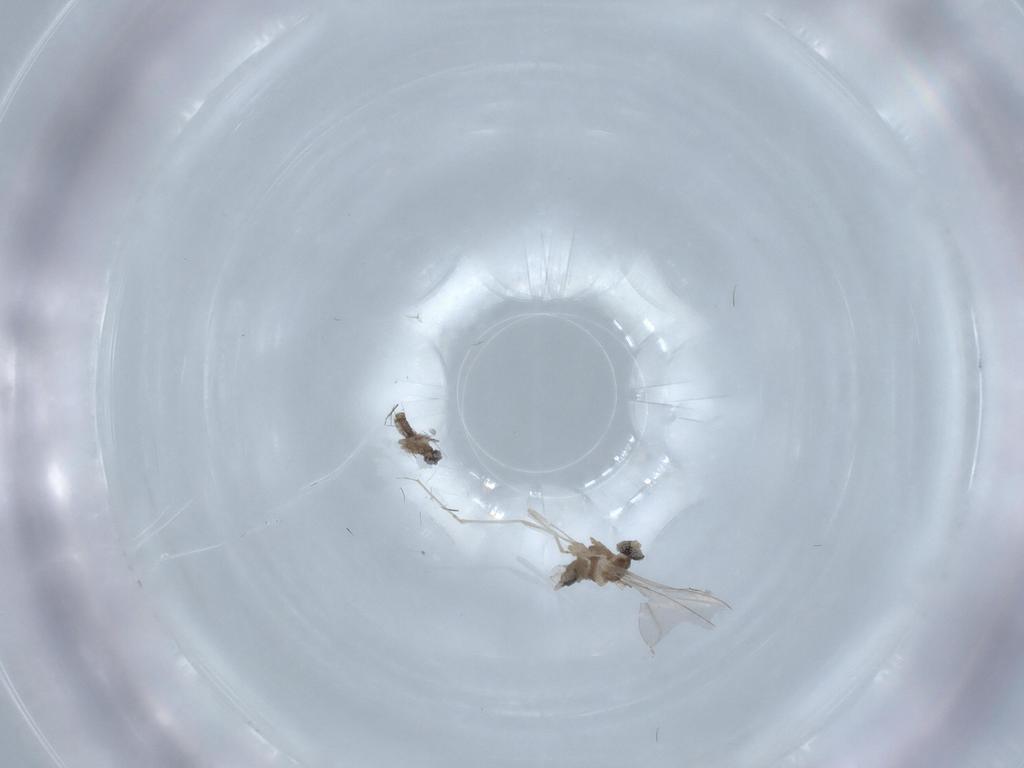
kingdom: Animalia
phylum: Arthropoda
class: Insecta
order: Diptera
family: Cecidomyiidae
